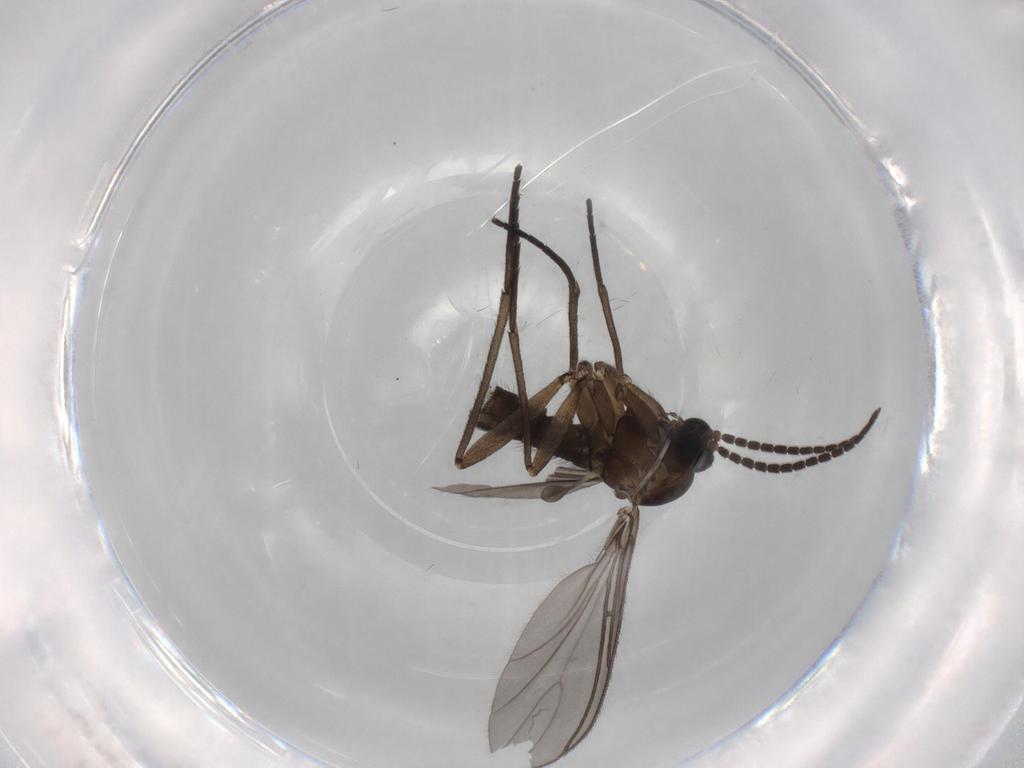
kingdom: Animalia
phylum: Arthropoda
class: Insecta
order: Diptera
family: Sciaridae
